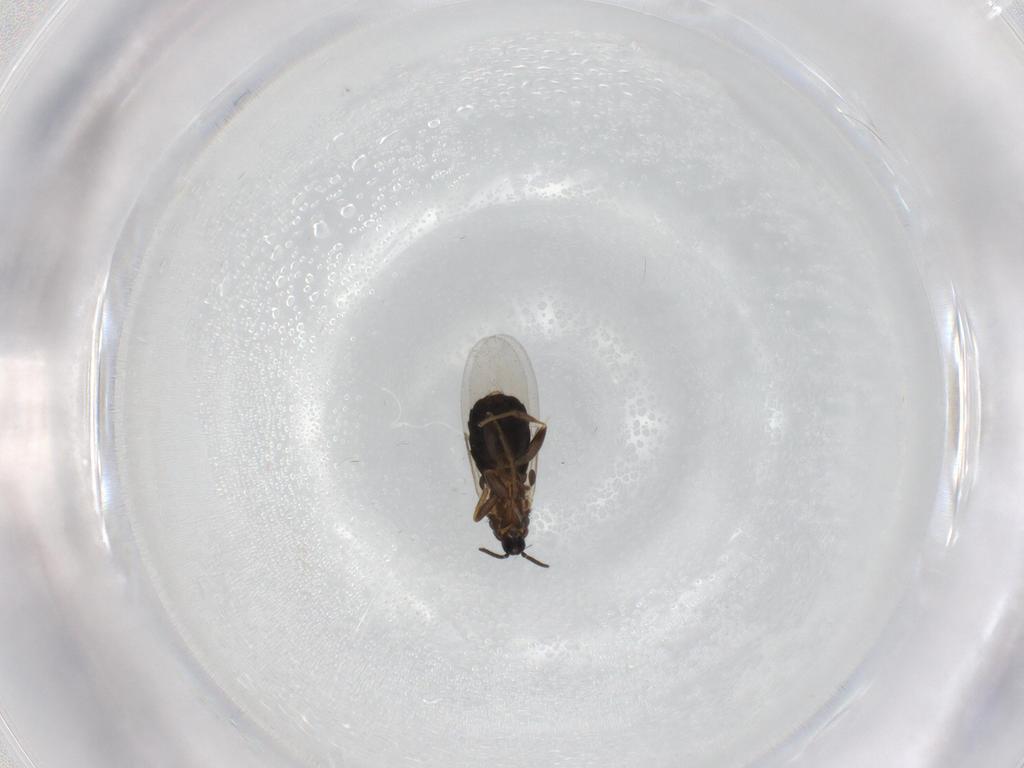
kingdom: Animalia
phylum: Arthropoda
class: Insecta
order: Diptera
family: Scatopsidae
